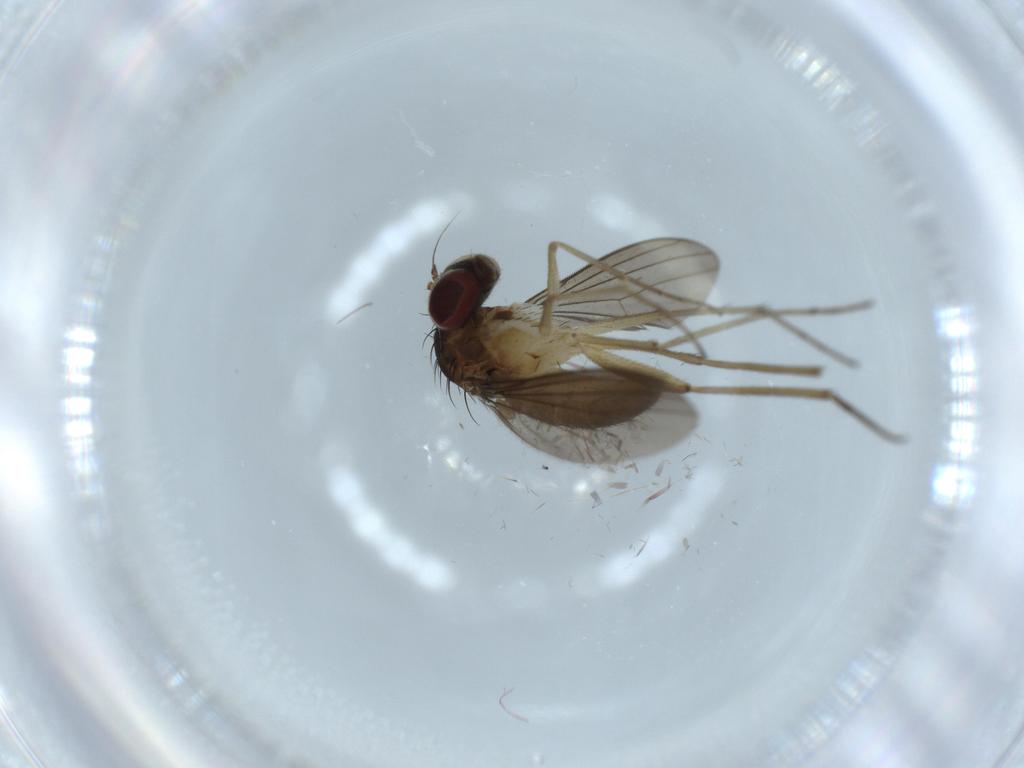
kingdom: Animalia
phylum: Arthropoda
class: Insecta
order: Diptera
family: Dolichopodidae
